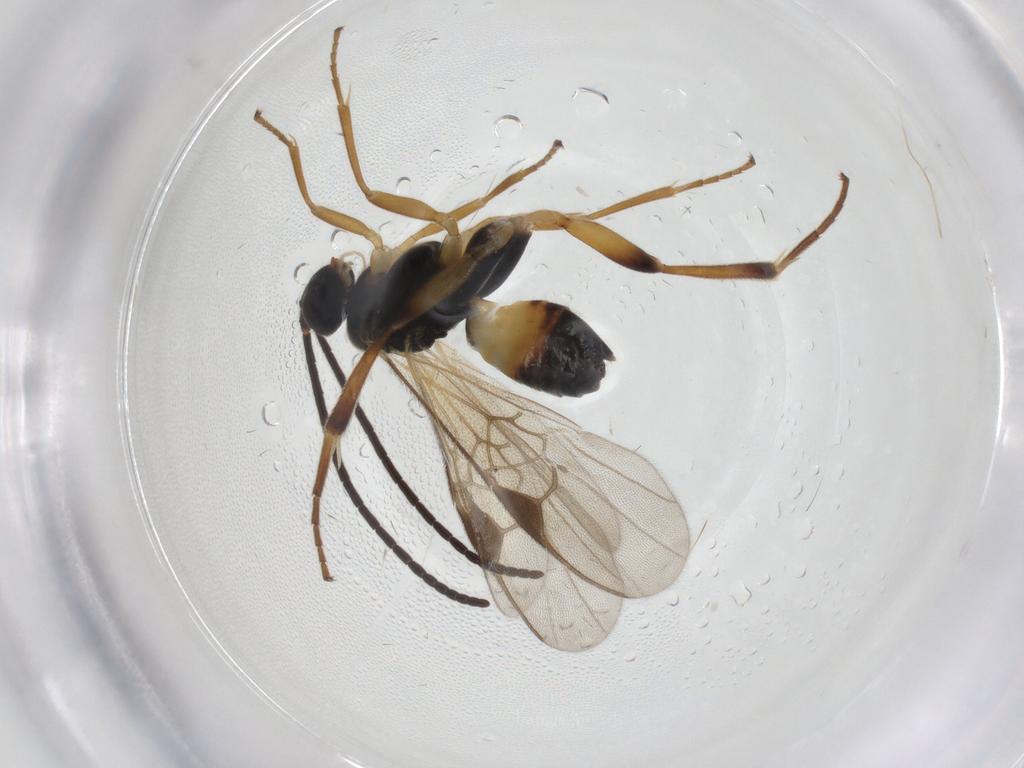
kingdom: Animalia
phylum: Arthropoda
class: Insecta
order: Hymenoptera
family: Braconidae
